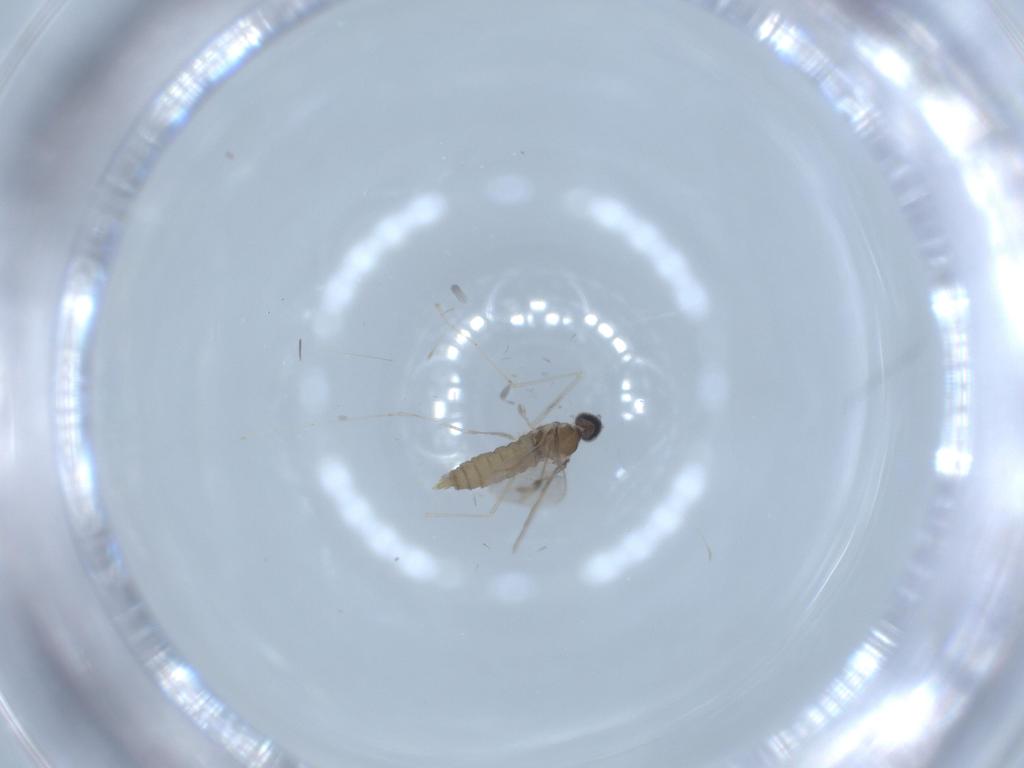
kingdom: Animalia
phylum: Arthropoda
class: Insecta
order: Diptera
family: Cecidomyiidae
